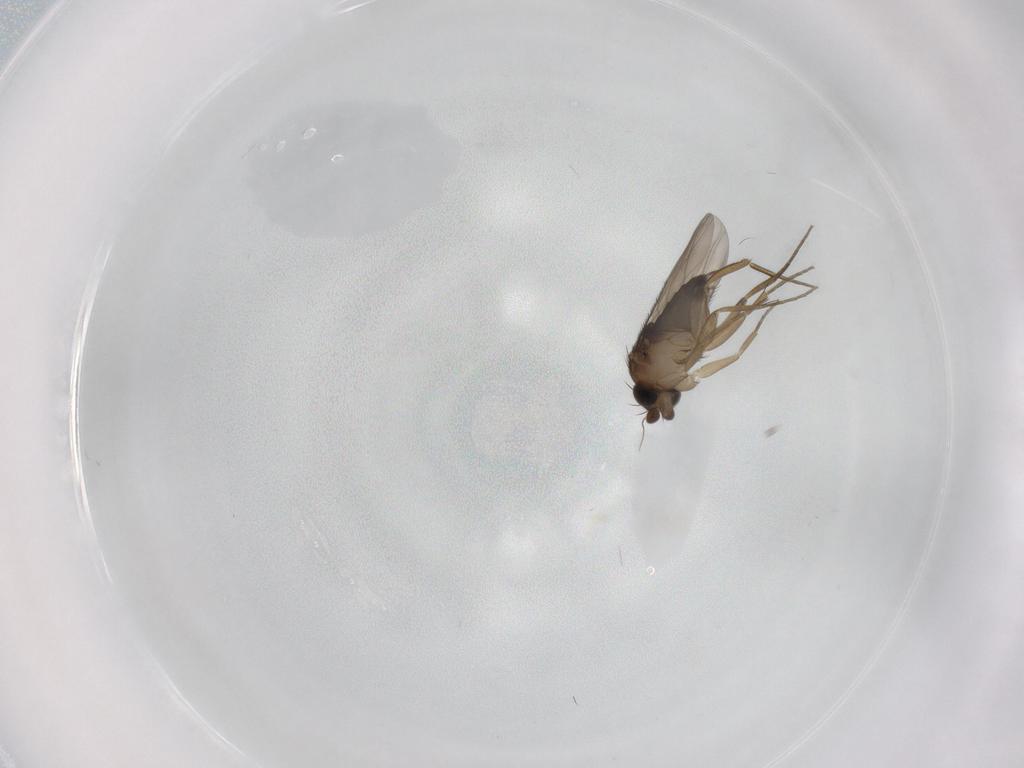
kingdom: Animalia
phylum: Arthropoda
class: Insecta
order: Diptera
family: Phoridae
